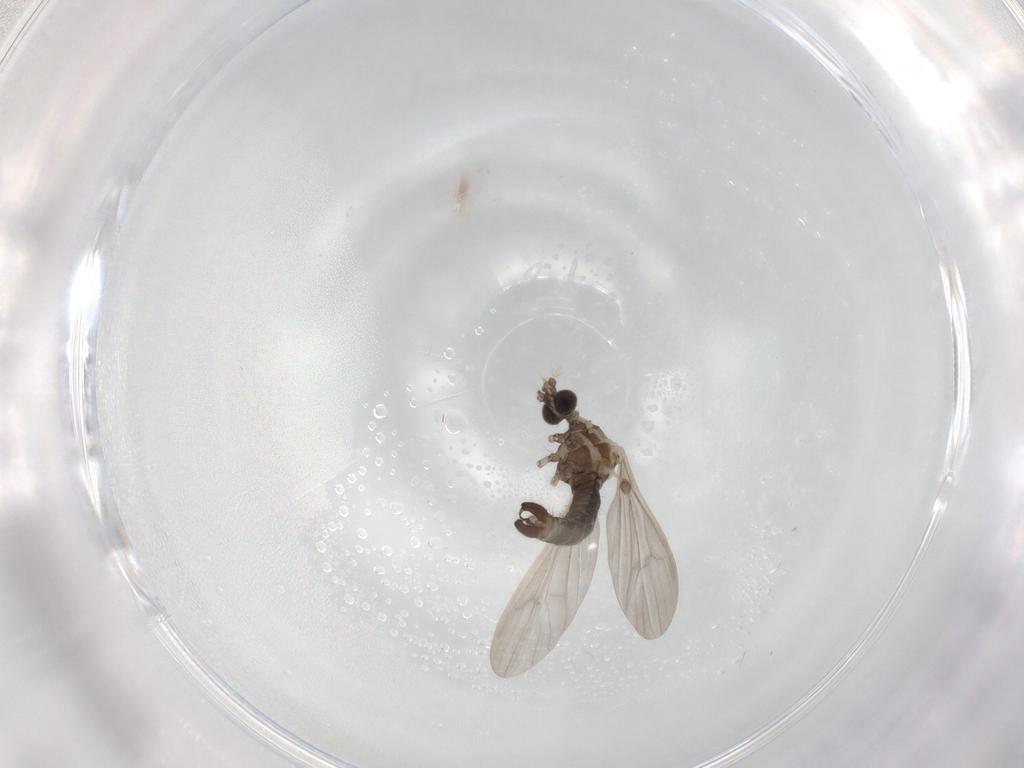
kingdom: Animalia
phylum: Arthropoda
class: Insecta
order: Diptera
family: Limoniidae
